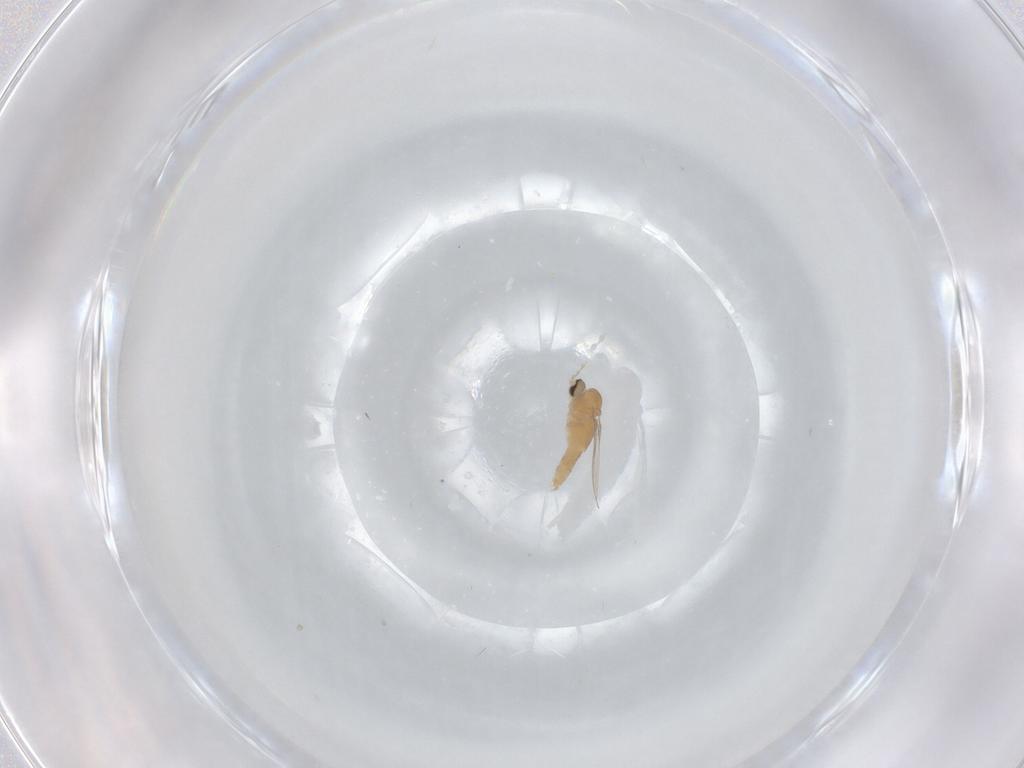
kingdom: Animalia
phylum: Arthropoda
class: Insecta
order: Diptera
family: Cecidomyiidae
